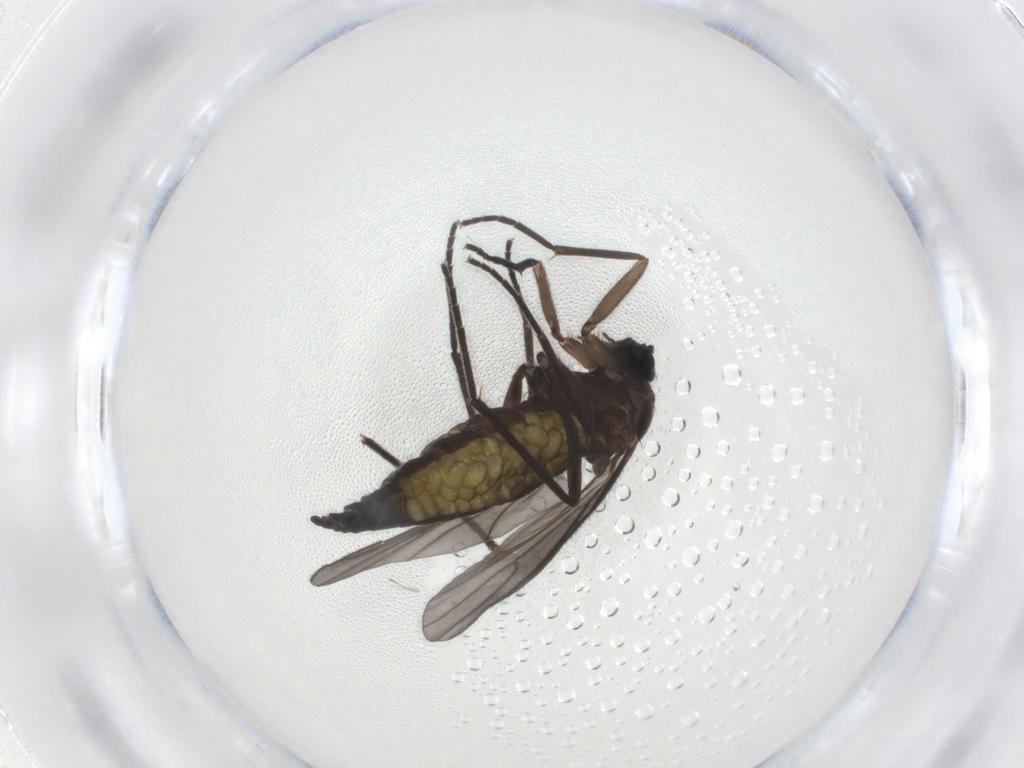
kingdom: Animalia
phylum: Arthropoda
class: Insecta
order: Diptera
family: Sciaridae
